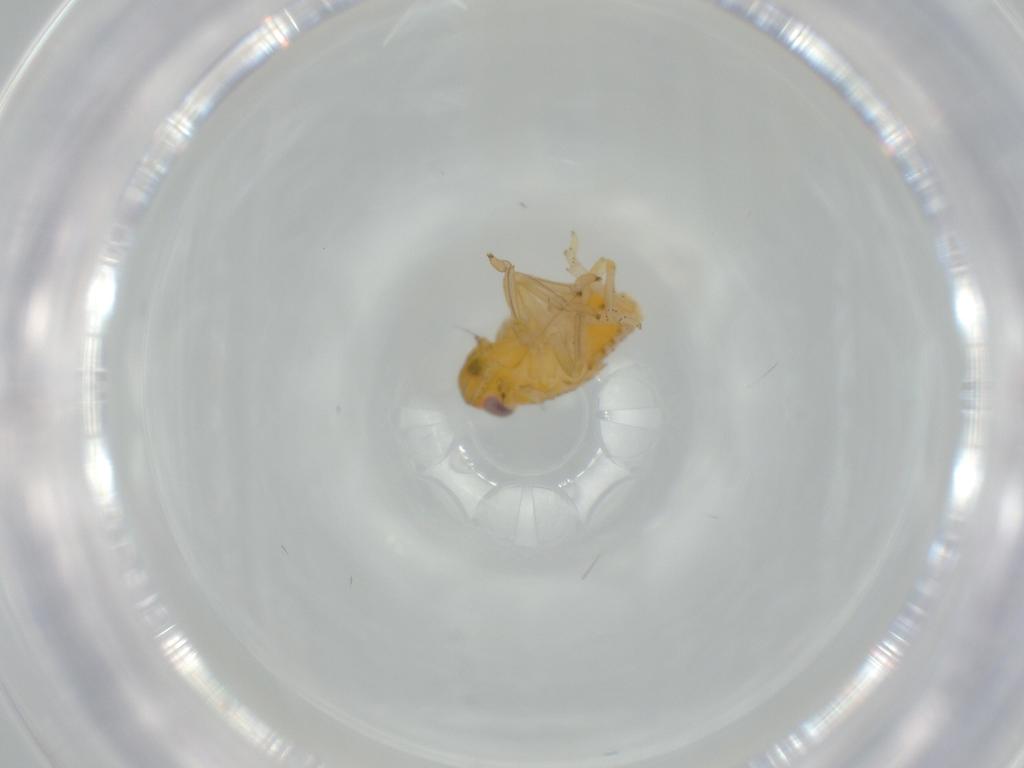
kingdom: Animalia
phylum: Arthropoda
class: Insecta
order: Hemiptera
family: Issidae
